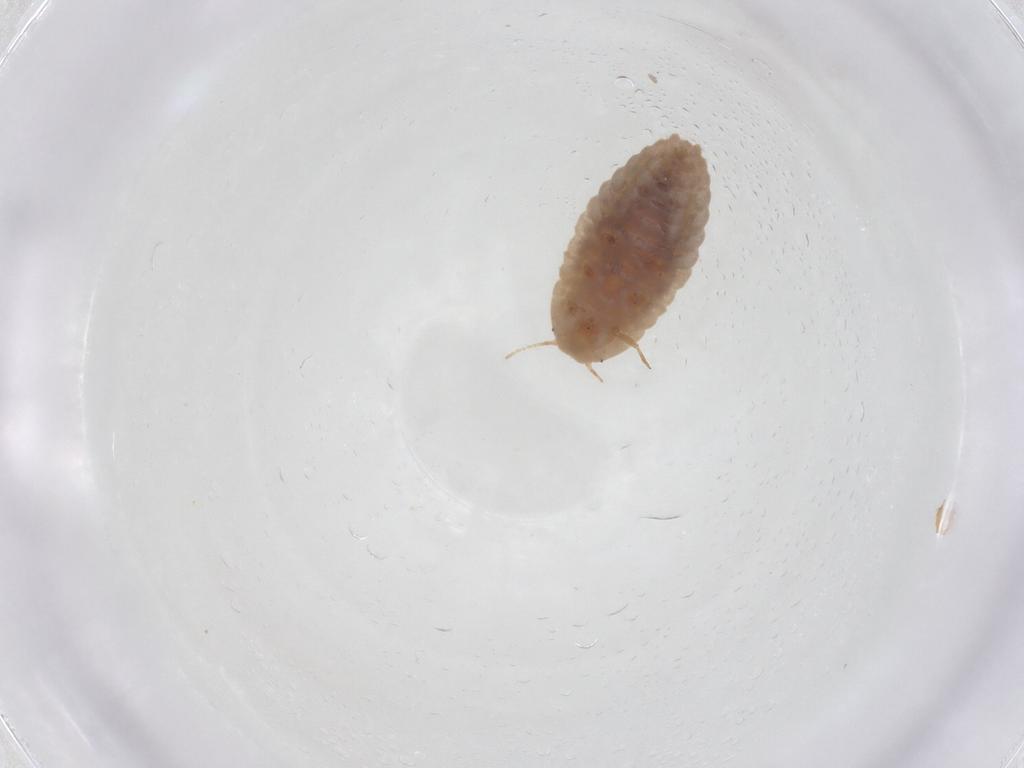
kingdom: Animalia
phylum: Arthropoda
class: Insecta
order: Hemiptera
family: Aphididae
